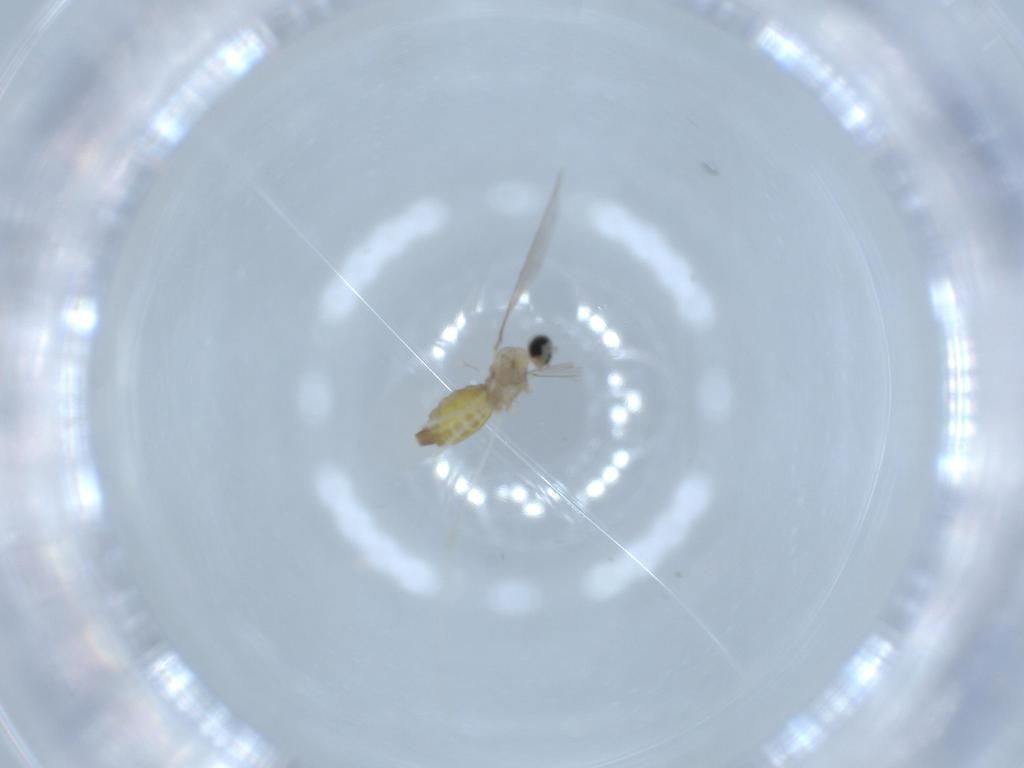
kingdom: Animalia
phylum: Arthropoda
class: Insecta
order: Diptera
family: Cecidomyiidae
